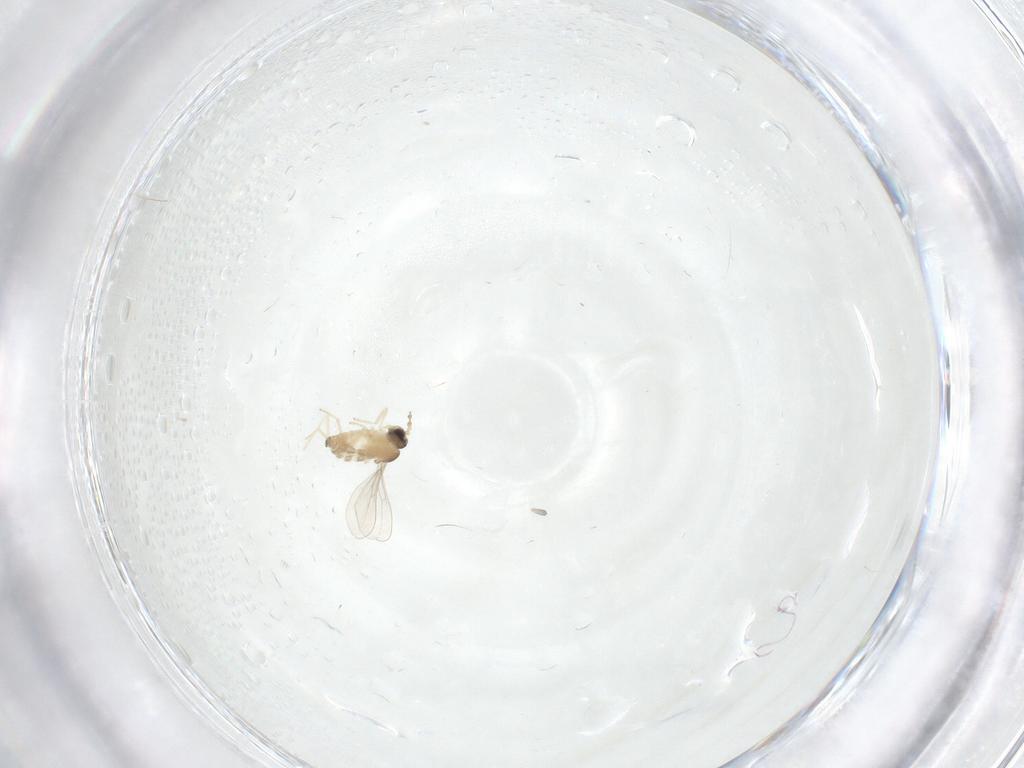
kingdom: Animalia
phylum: Arthropoda
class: Insecta
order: Diptera
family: Cecidomyiidae
